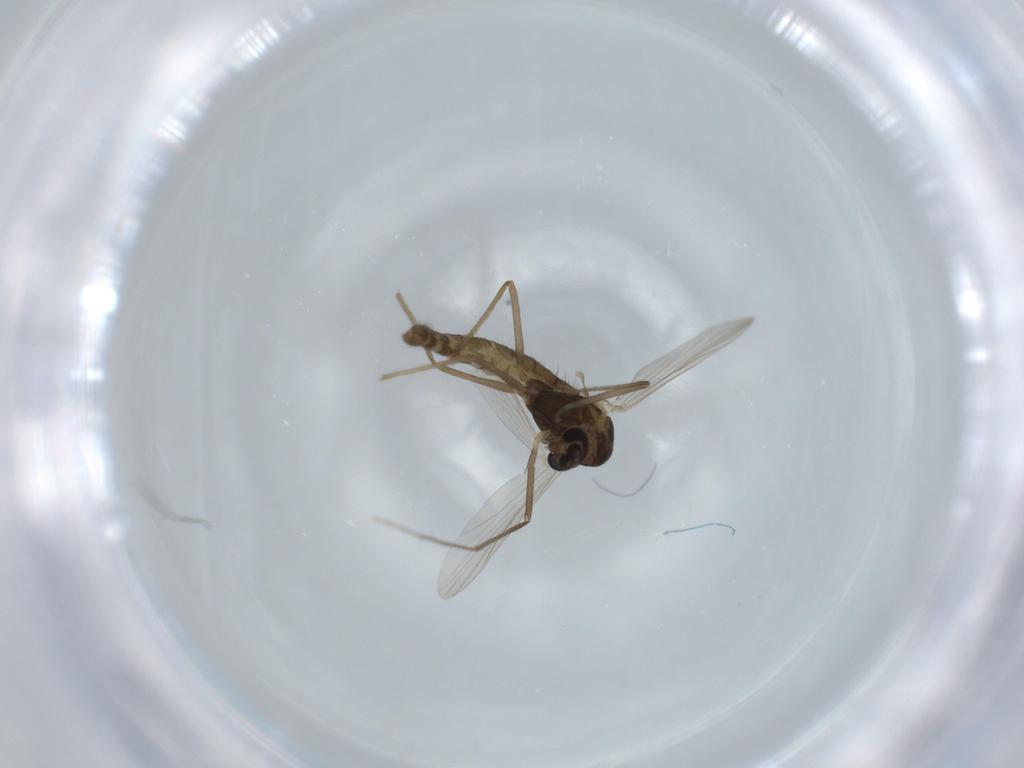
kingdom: Animalia
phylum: Arthropoda
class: Insecta
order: Diptera
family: Chironomidae
